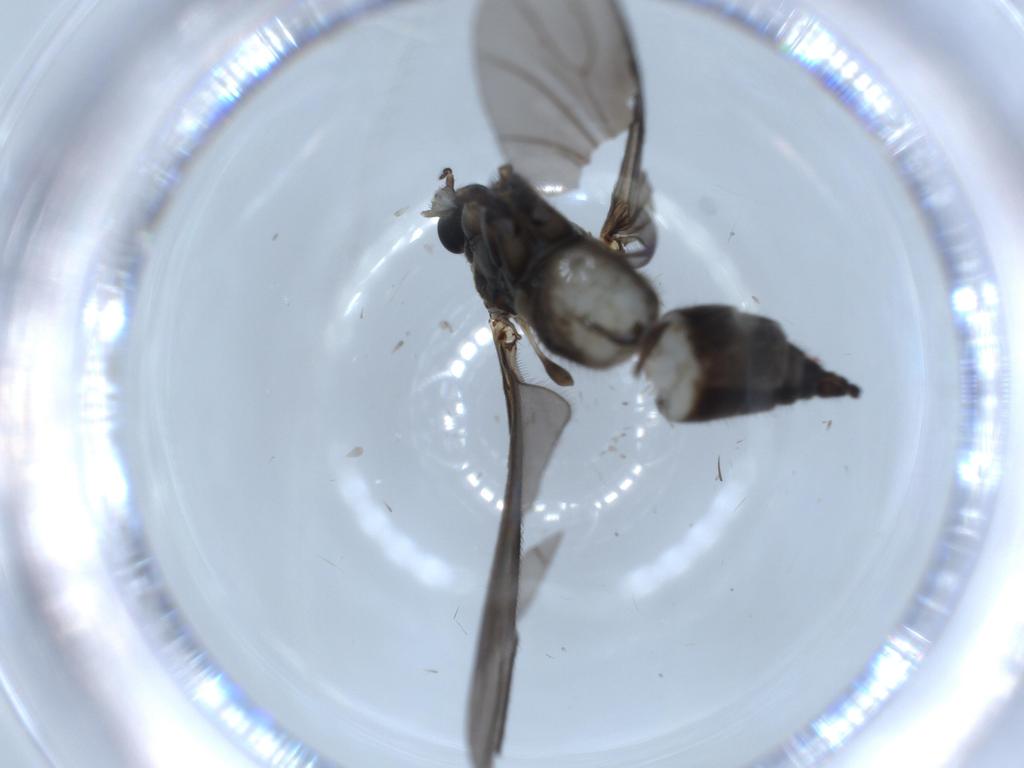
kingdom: Animalia
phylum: Arthropoda
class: Insecta
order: Diptera
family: Sciaridae
